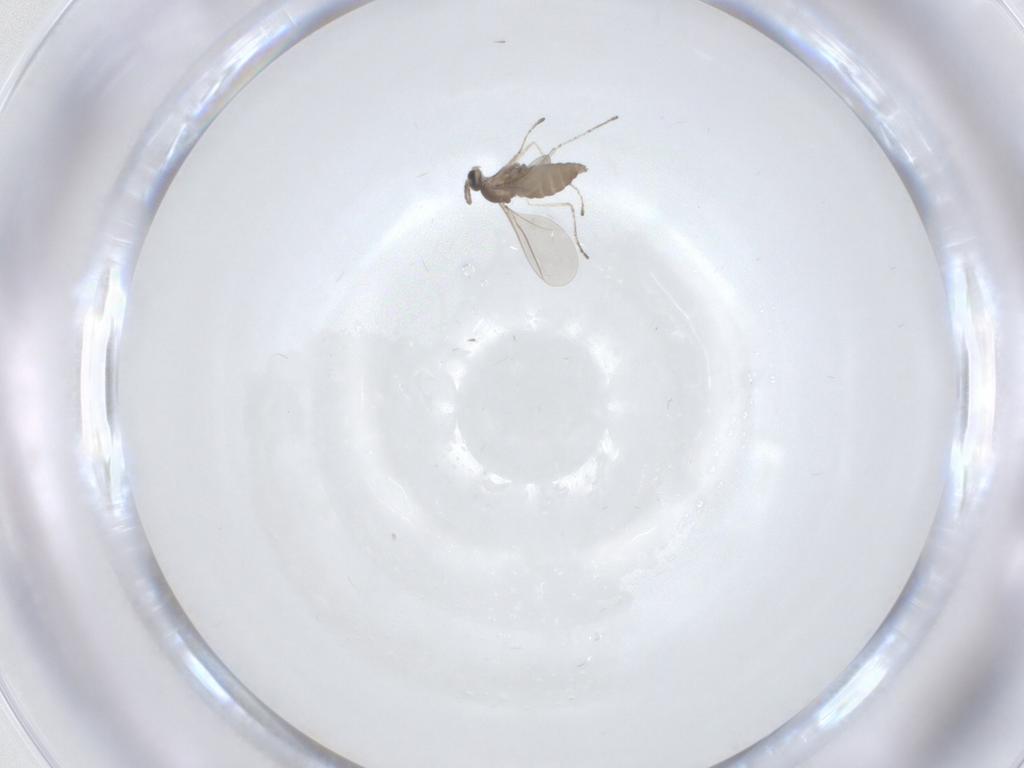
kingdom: Animalia
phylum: Arthropoda
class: Insecta
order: Diptera
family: Cecidomyiidae
